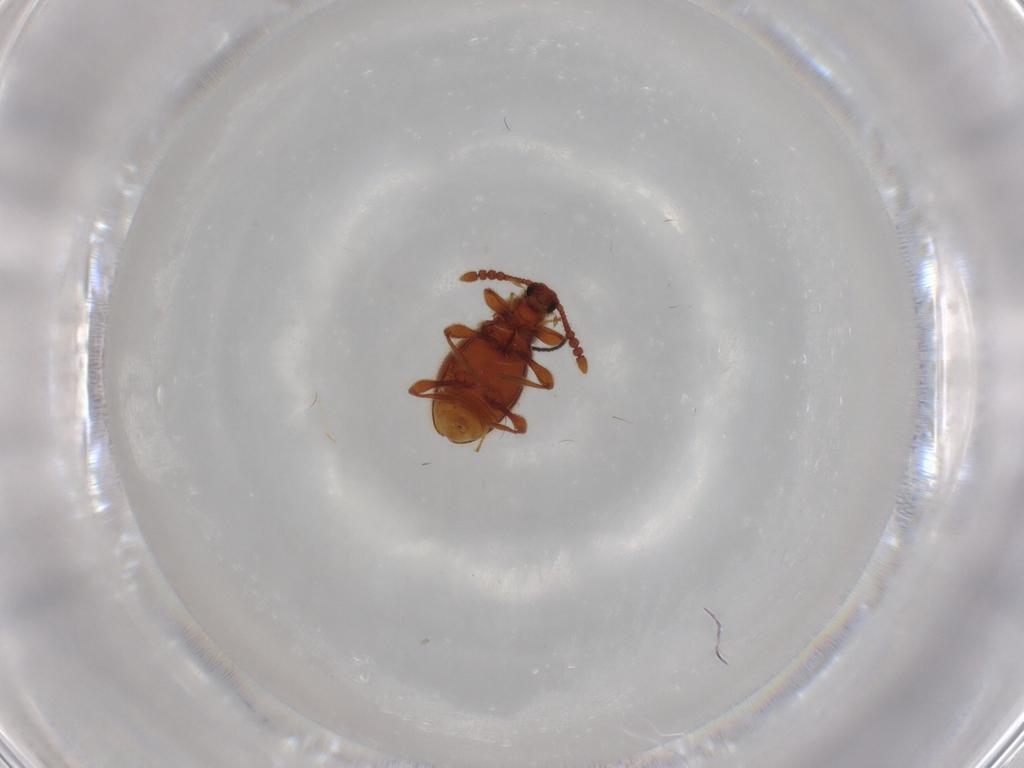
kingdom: Animalia
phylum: Arthropoda
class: Insecta
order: Coleoptera
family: Staphylinidae
